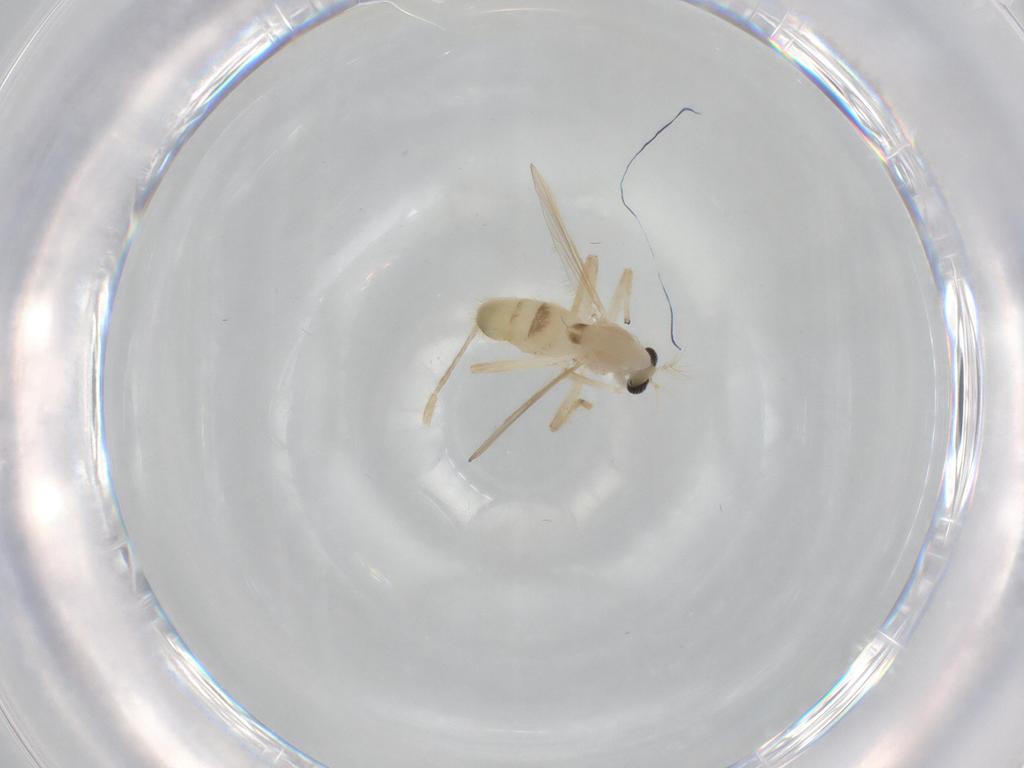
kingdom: Animalia
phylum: Arthropoda
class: Insecta
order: Diptera
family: Chironomidae
